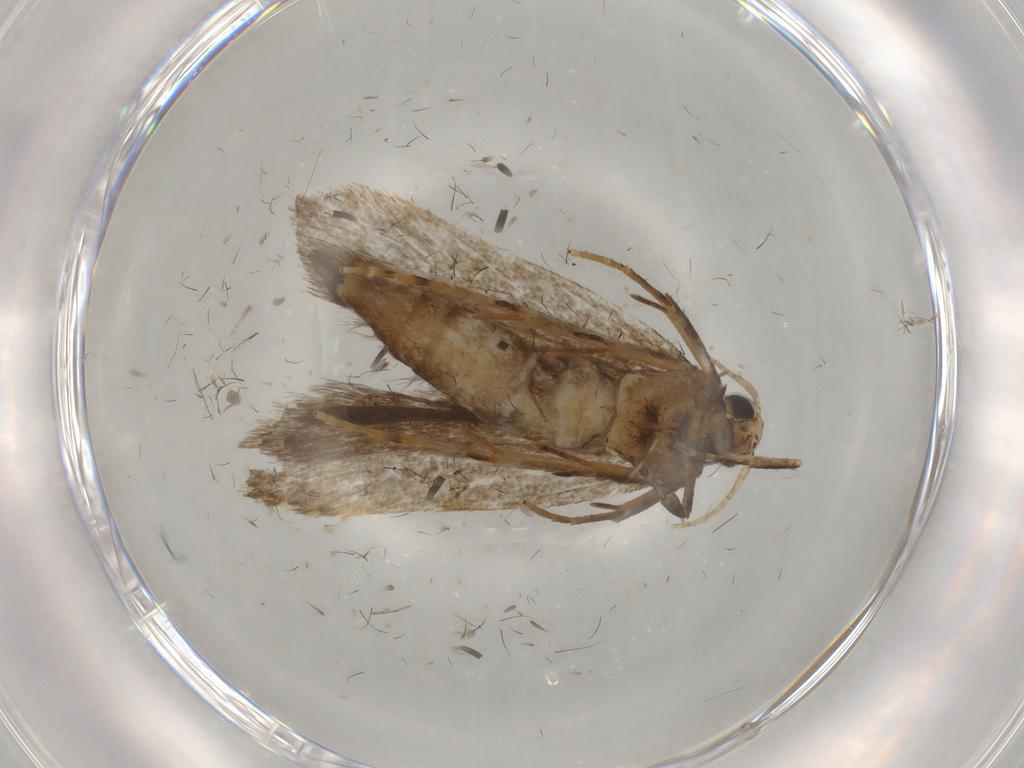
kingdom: Animalia
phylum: Arthropoda
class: Insecta
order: Lepidoptera
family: Gelechiidae
